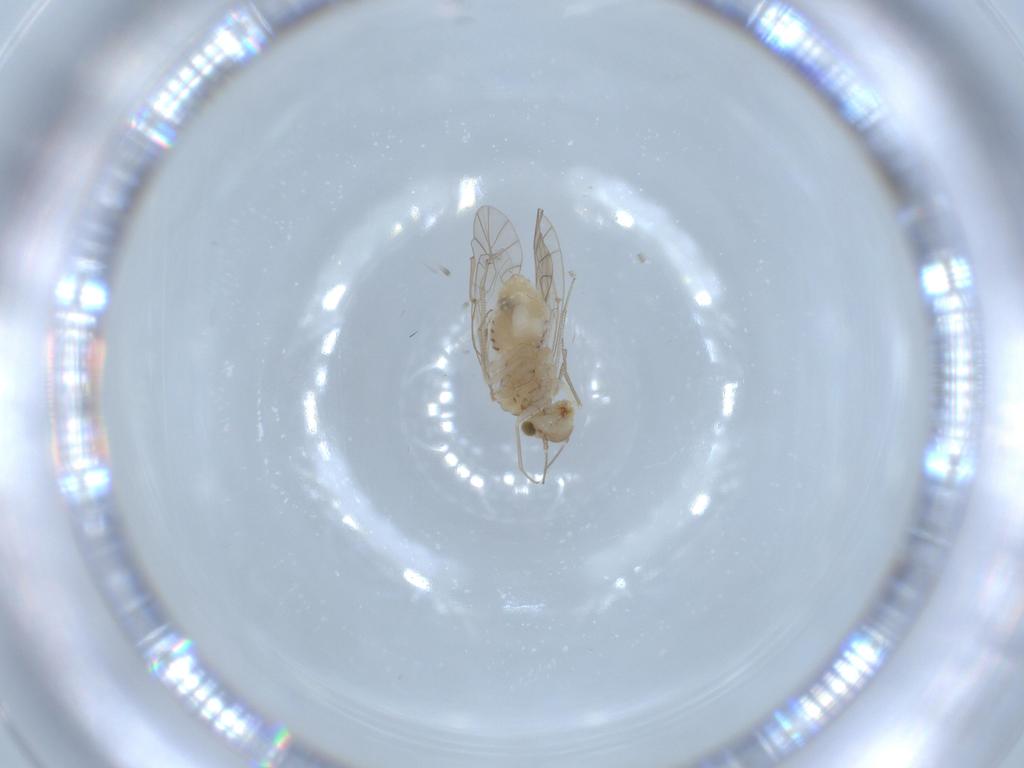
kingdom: Animalia
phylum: Arthropoda
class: Insecta
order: Psocodea
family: Lachesillidae
